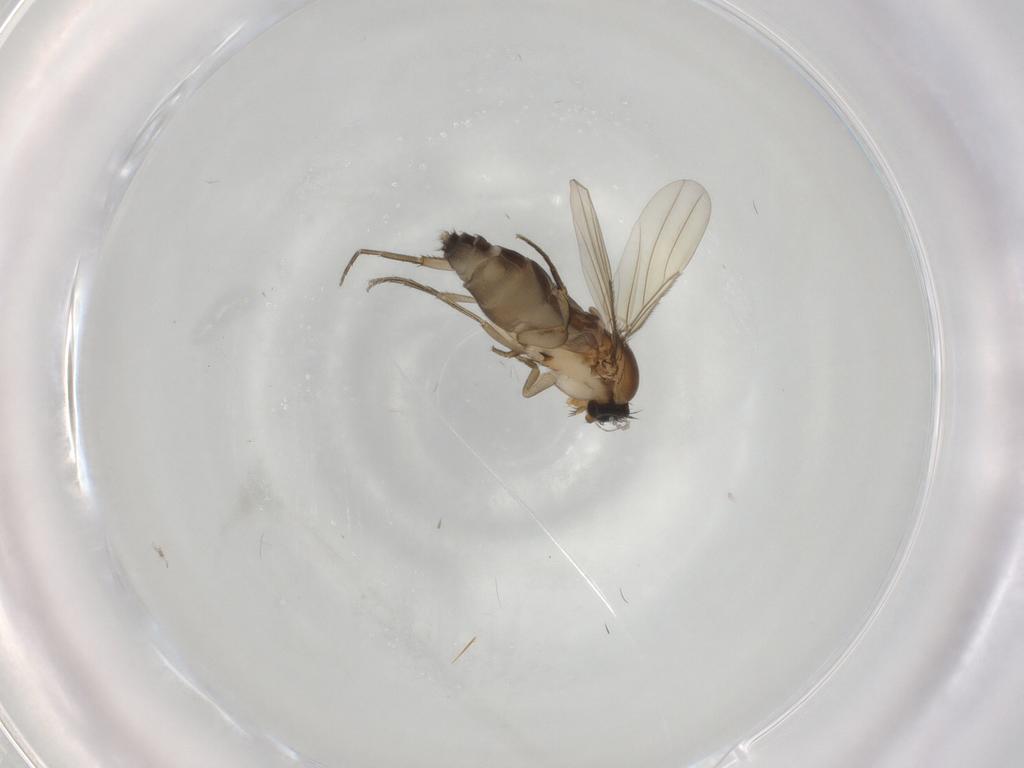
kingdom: Animalia
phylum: Arthropoda
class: Insecta
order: Diptera
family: Phoridae
